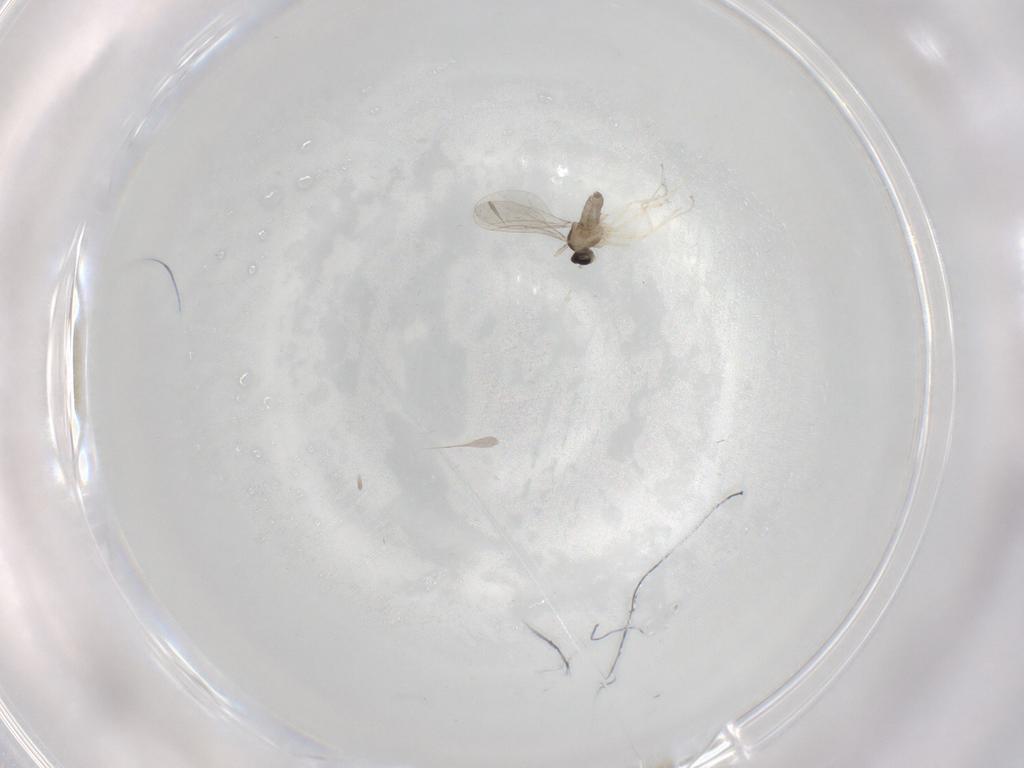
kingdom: Animalia
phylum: Arthropoda
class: Insecta
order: Diptera
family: Cecidomyiidae
